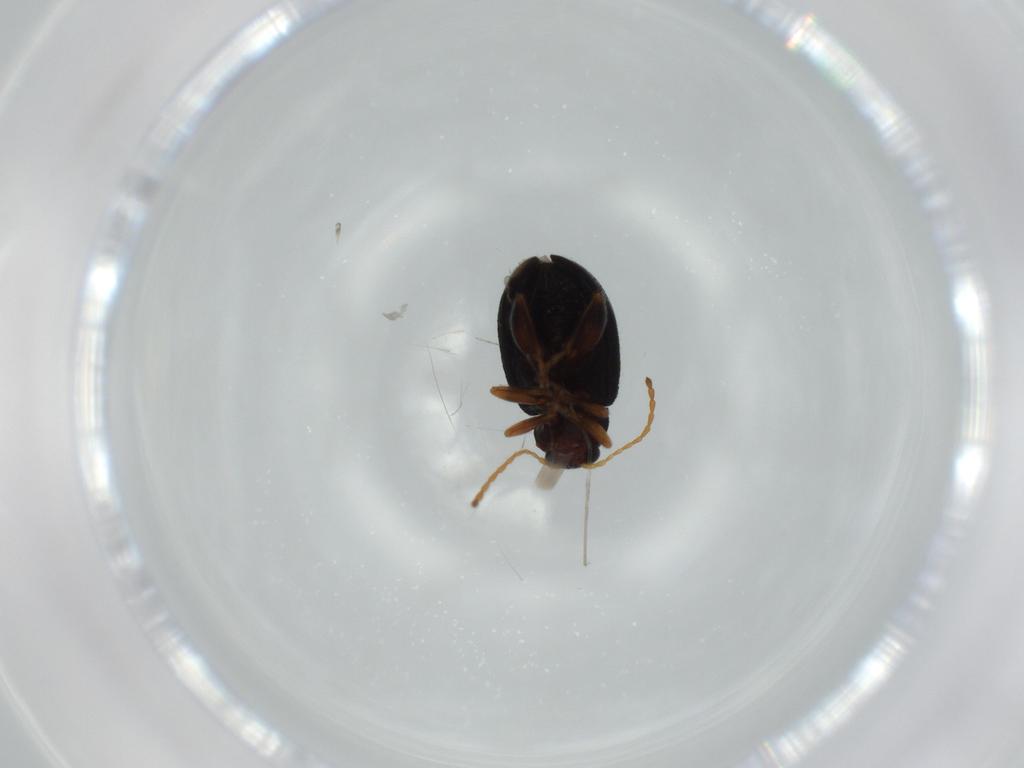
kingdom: Animalia
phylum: Arthropoda
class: Insecta
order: Coleoptera
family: Chrysomelidae
